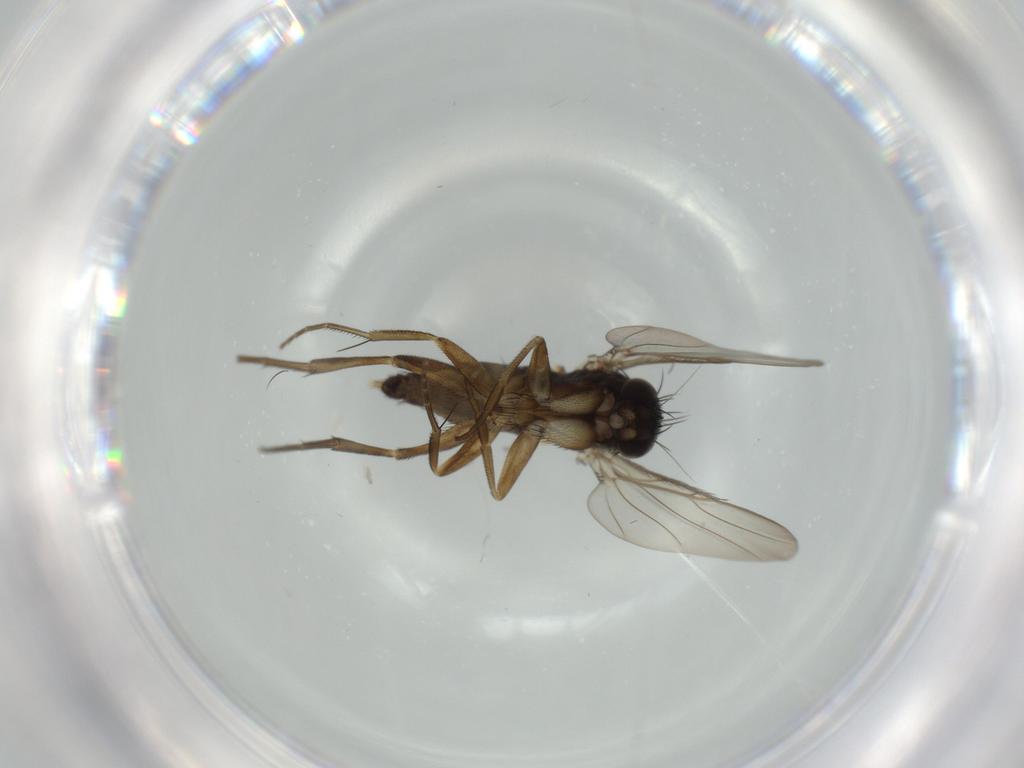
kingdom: Animalia
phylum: Arthropoda
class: Insecta
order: Diptera
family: Phoridae
